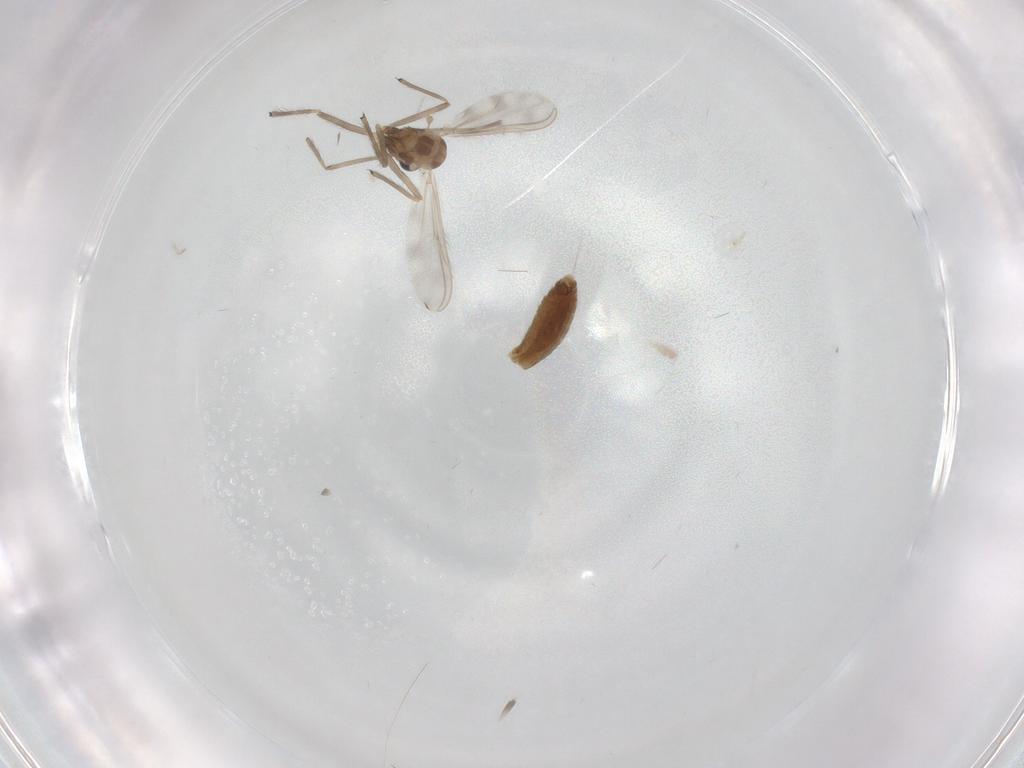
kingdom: Animalia
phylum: Arthropoda
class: Insecta
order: Diptera
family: Chironomidae
